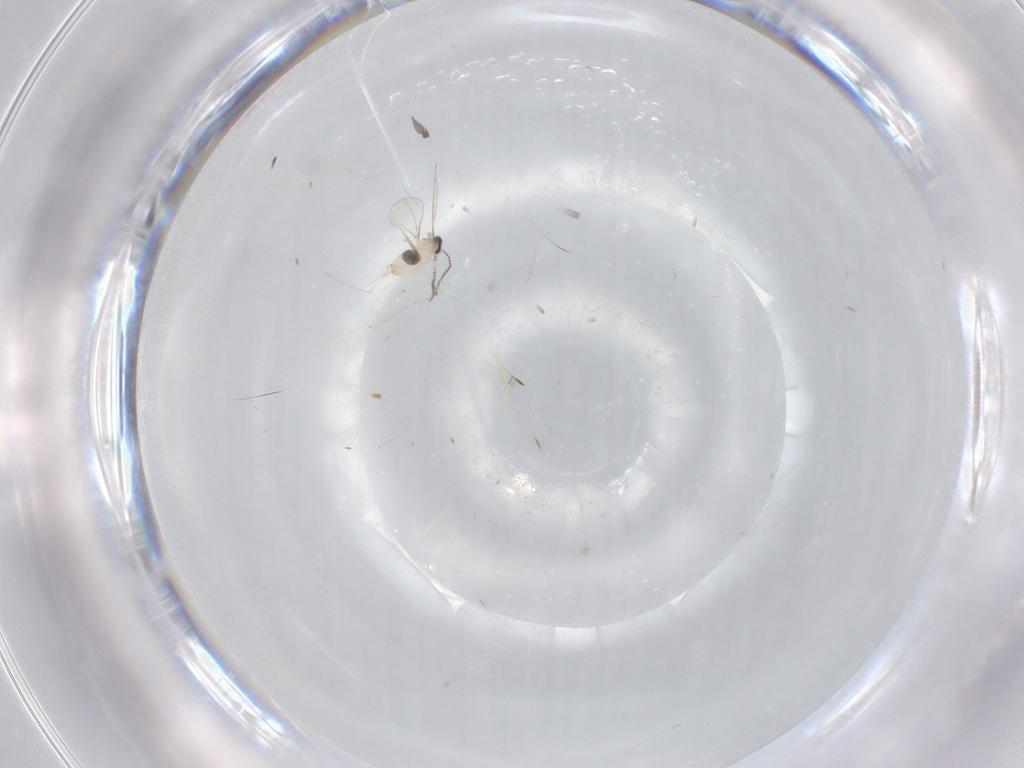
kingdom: Animalia
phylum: Arthropoda
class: Insecta
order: Diptera
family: Cecidomyiidae
